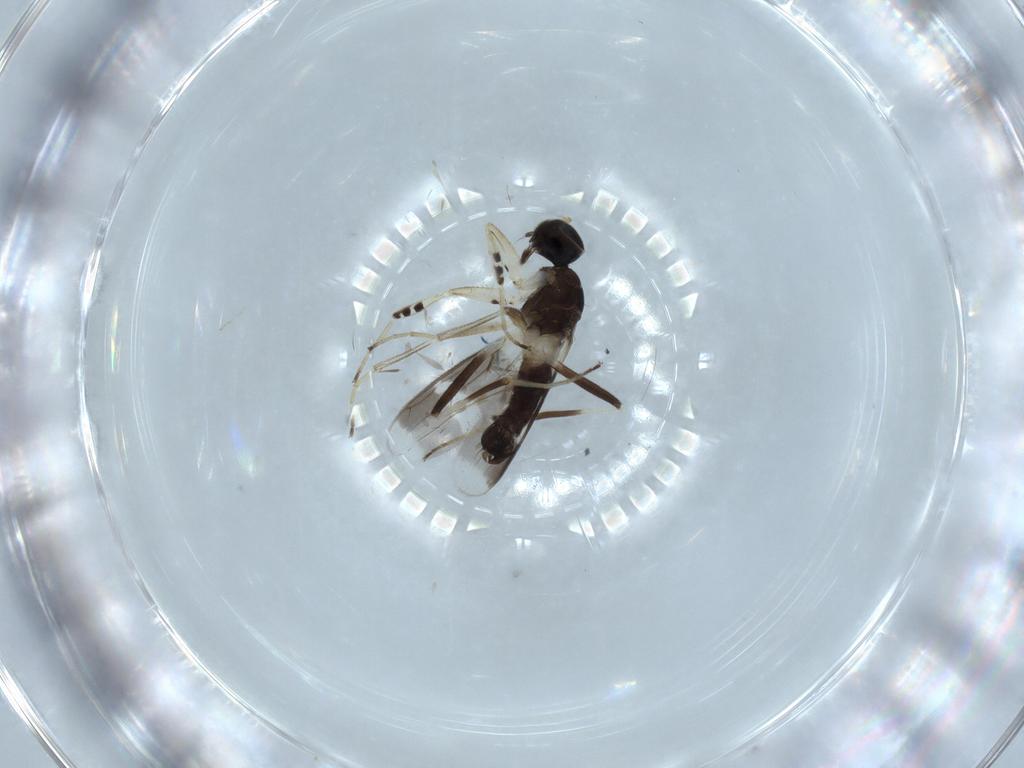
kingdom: Animalia
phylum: Arthropoda
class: Insecta
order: Diptera
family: Hybotidae
